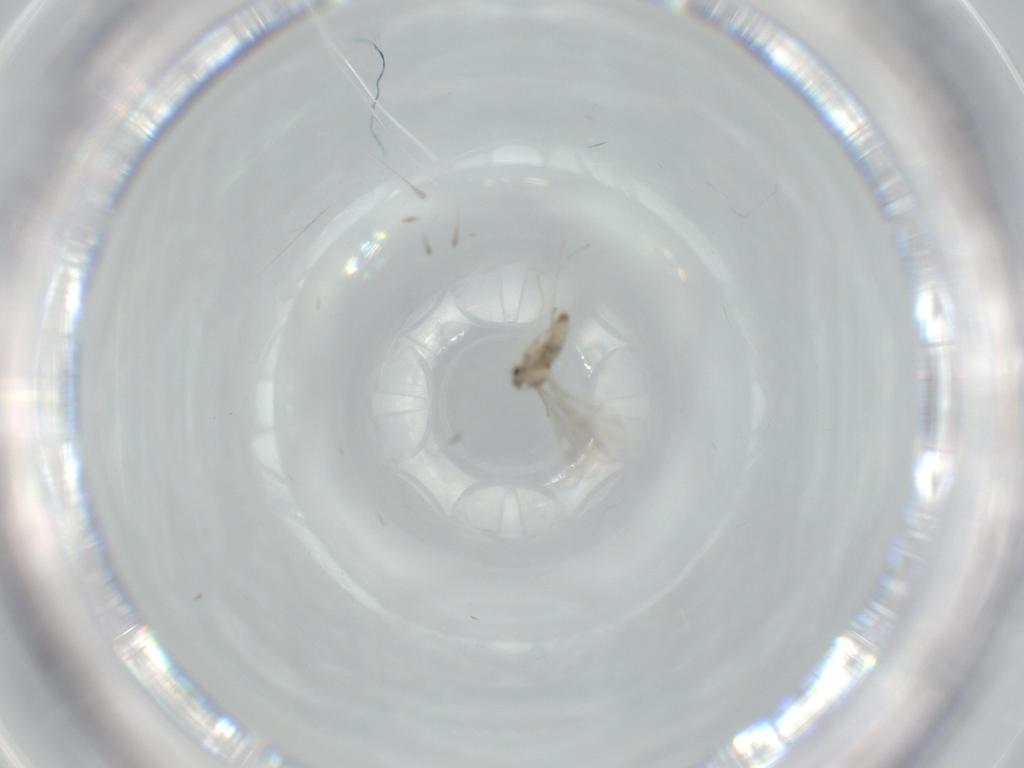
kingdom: Animalia
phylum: Arthropoda
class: Insecta
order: Diptera
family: Cecidomyiidae
